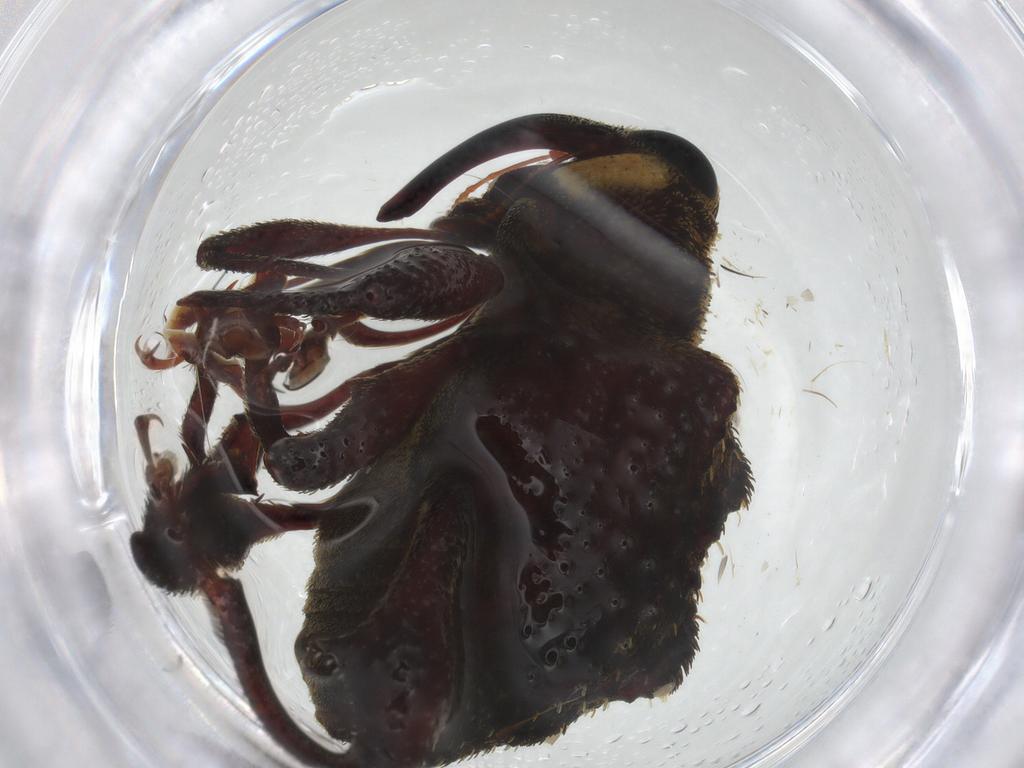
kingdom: Animalia
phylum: Arthropoda
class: Insecta
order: Coleoptera
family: Curculionidae
